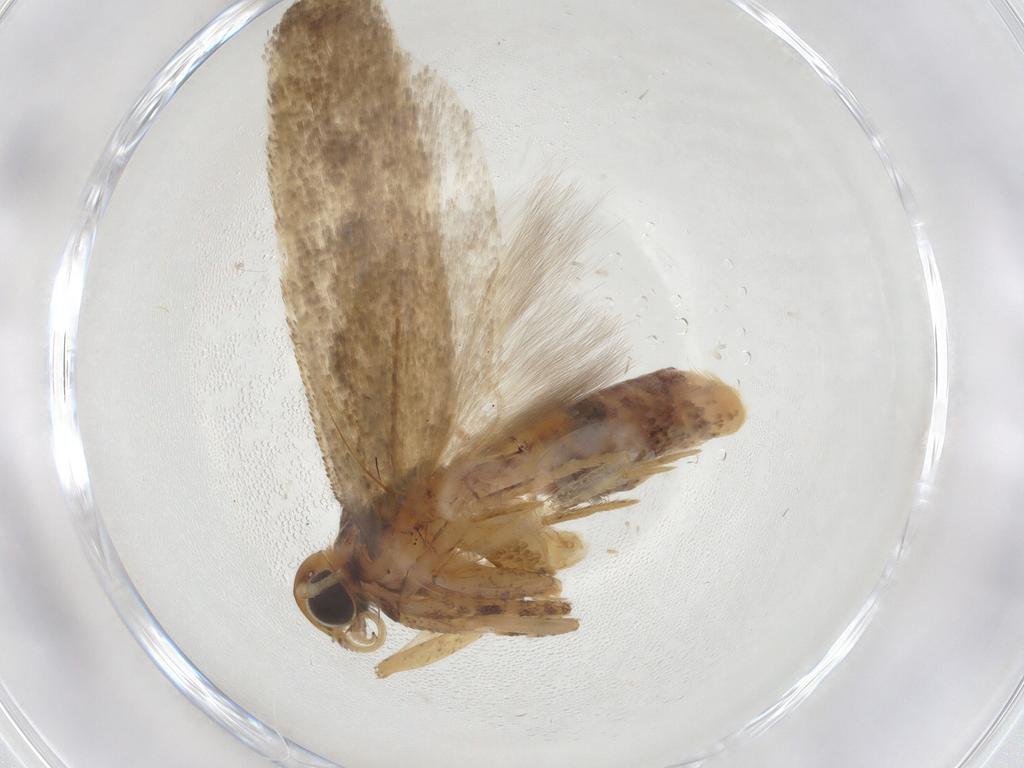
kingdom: Animalia
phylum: Arthropoda
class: Insecta
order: Lepidoptera
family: Gelechiidae
